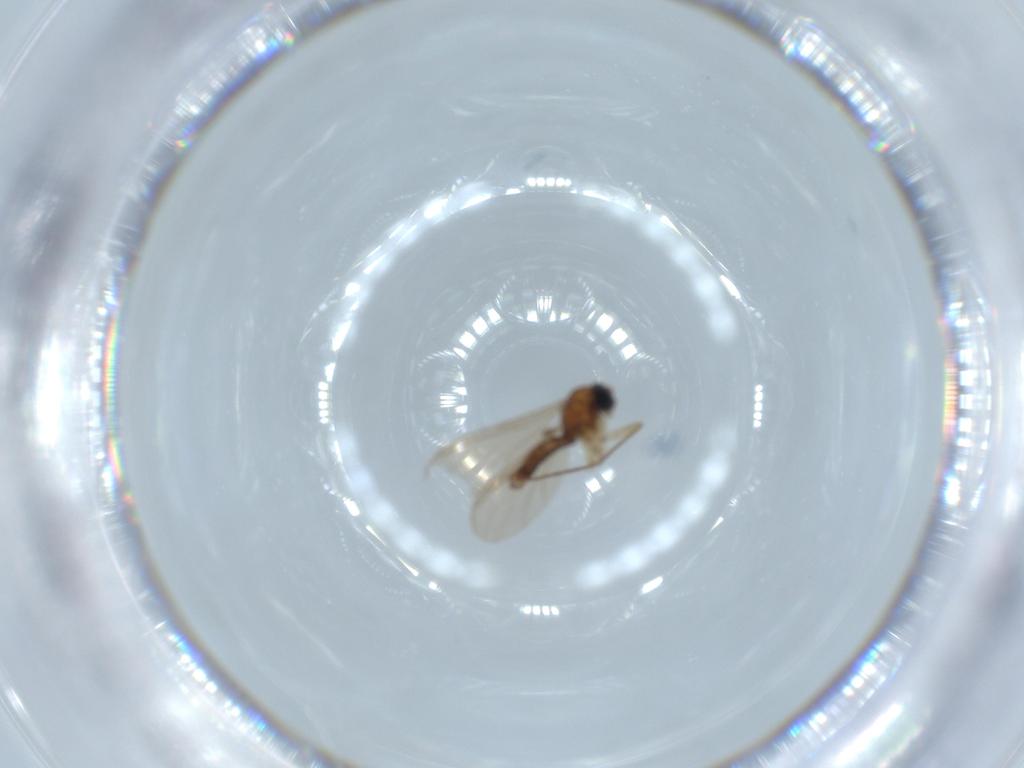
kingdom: Animalia
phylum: Arthropoda
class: Insecta
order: Diptera
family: Sciaridae
